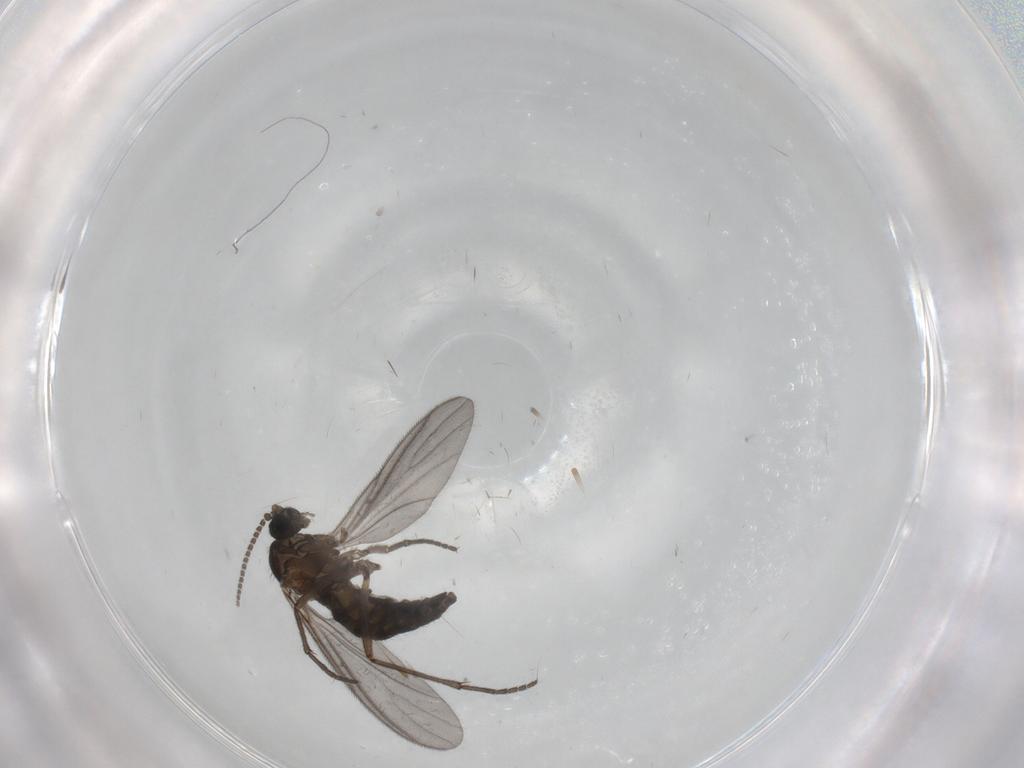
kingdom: Animalia
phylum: Arthropoda
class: Insecta
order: Diptera
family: Sciaridae
